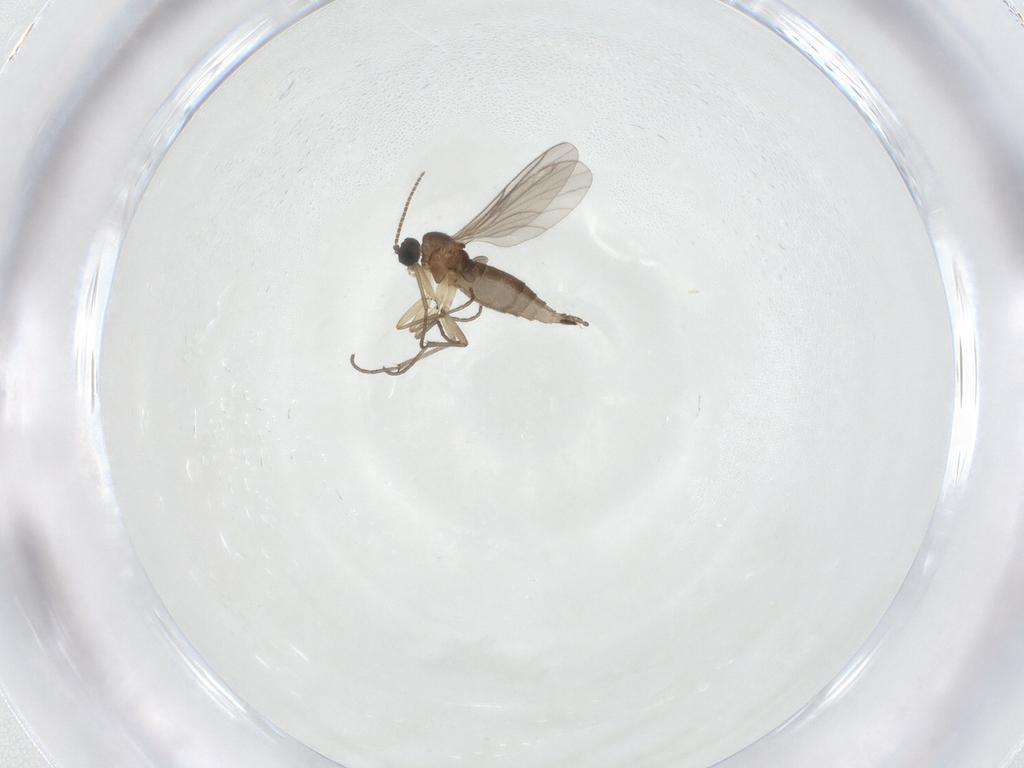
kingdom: Animalia
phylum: Arthropoda
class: Insecta
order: Diptera
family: Sciaridae
